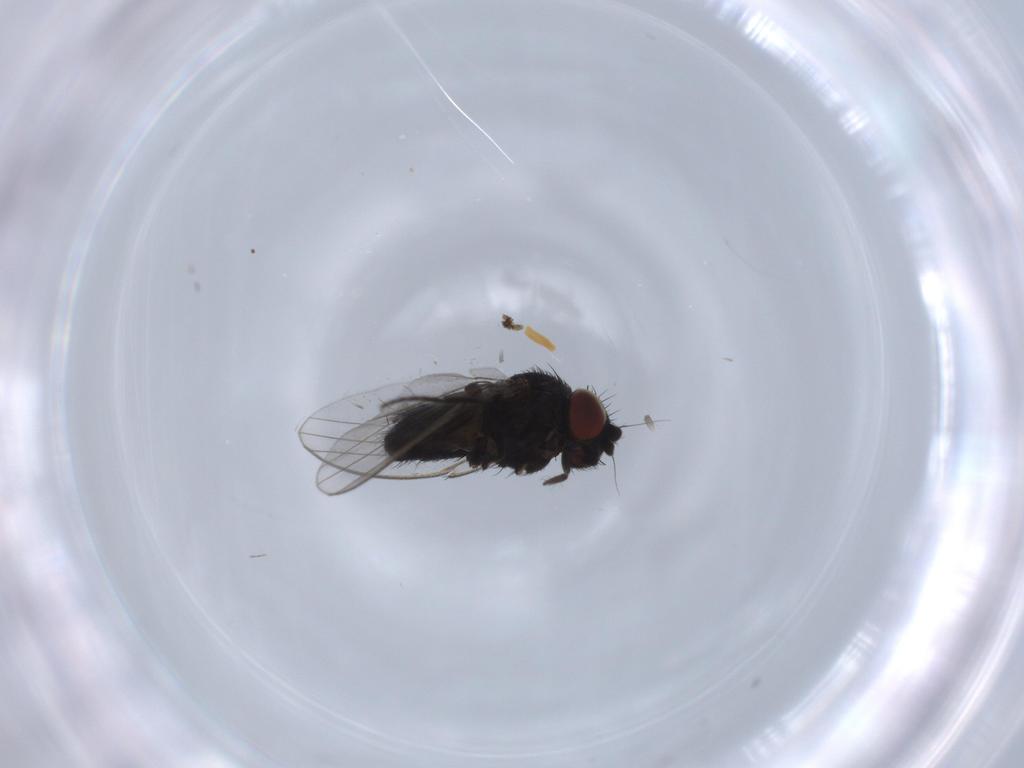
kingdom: Animalia
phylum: Arthropoda
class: Insecta
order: Diptera
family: Milichiidae
